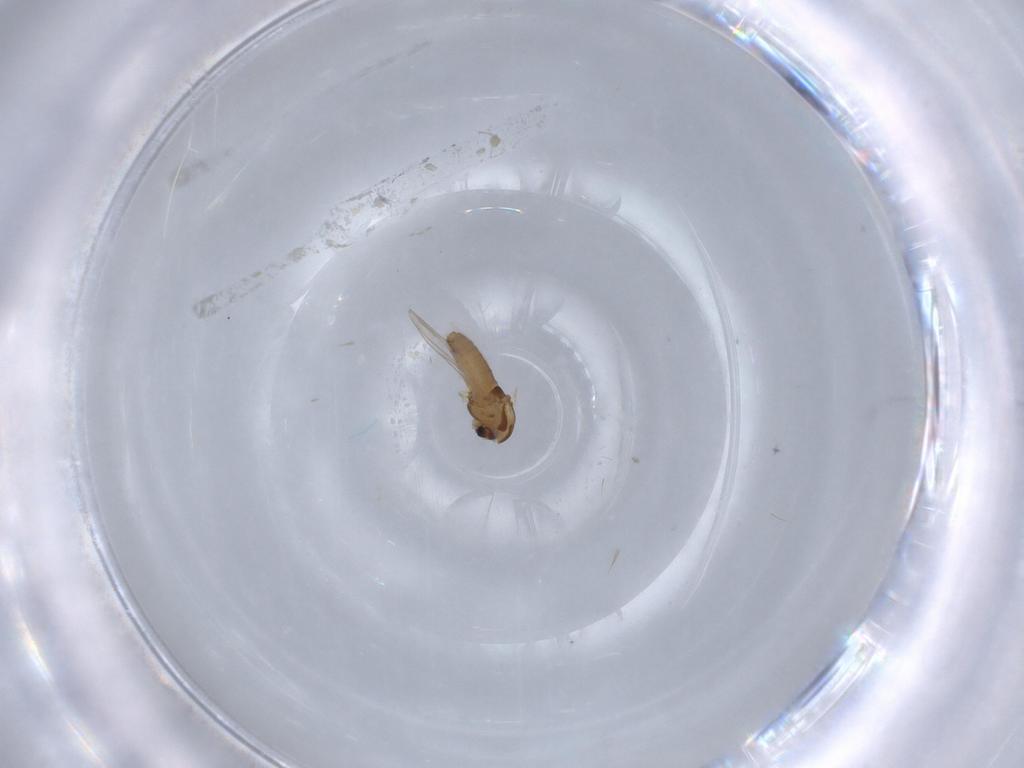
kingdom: Animalia
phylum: Arthropoda
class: Insecta
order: Diptera
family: Chironomidae
